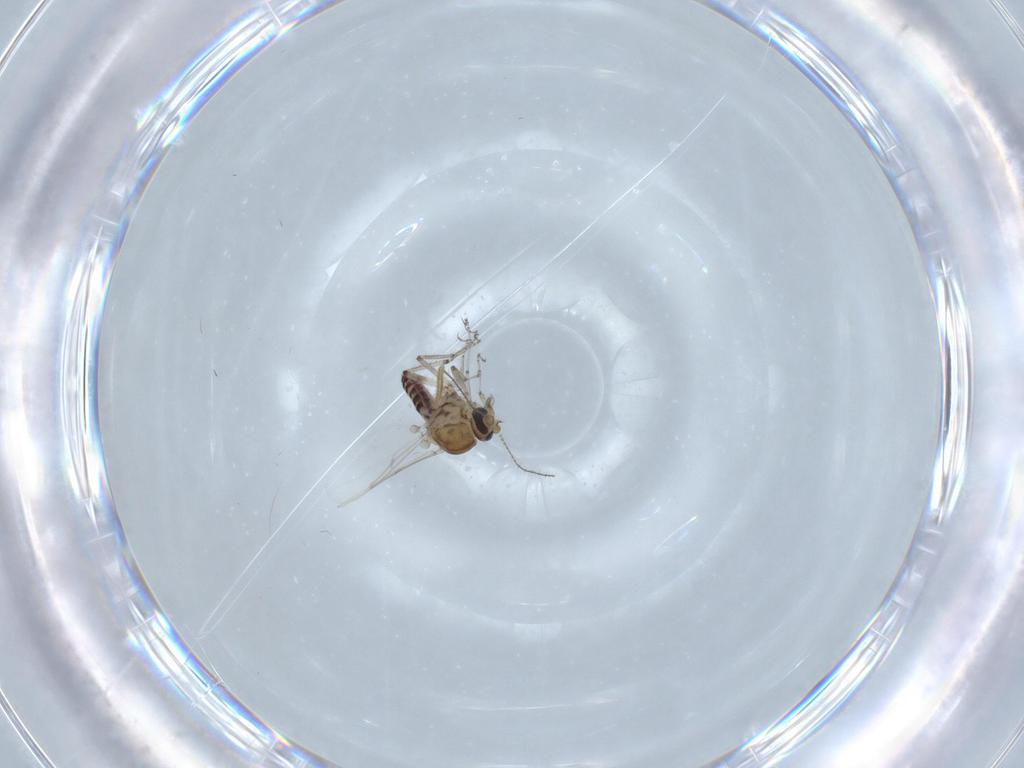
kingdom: Animalia
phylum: Arthropoda
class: Insecta
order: Diptera
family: Ceratopogonidae
